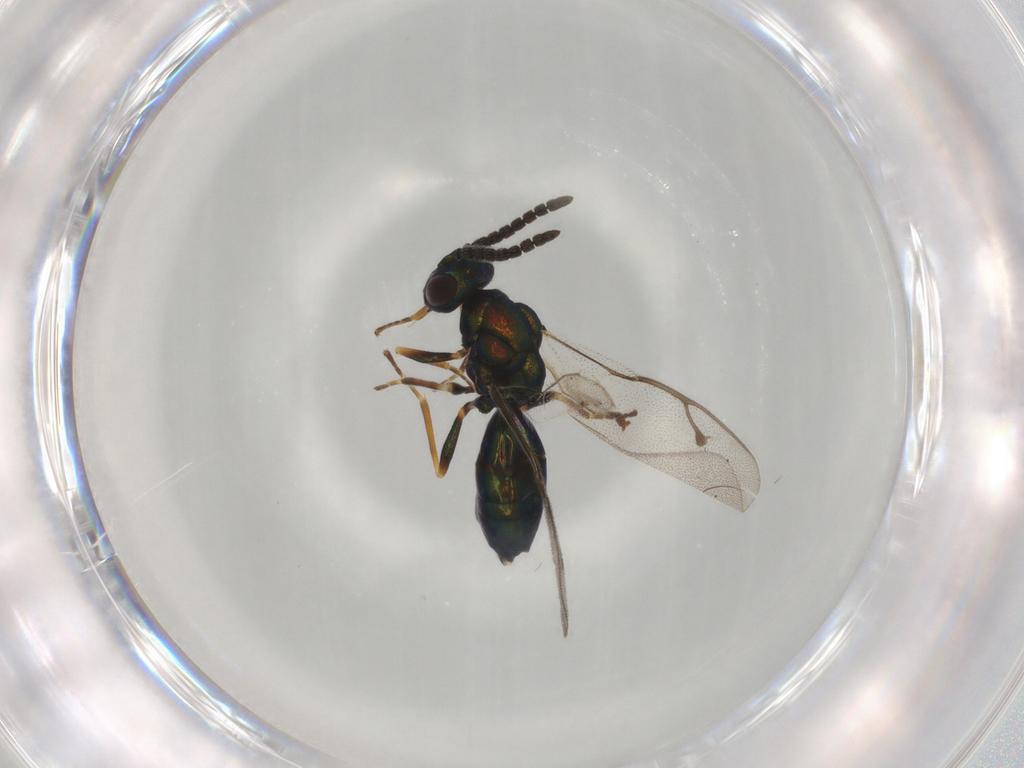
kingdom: Animalia
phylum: Arthropoda
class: Insecta
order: Hymenoptera
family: Pteromalidae
